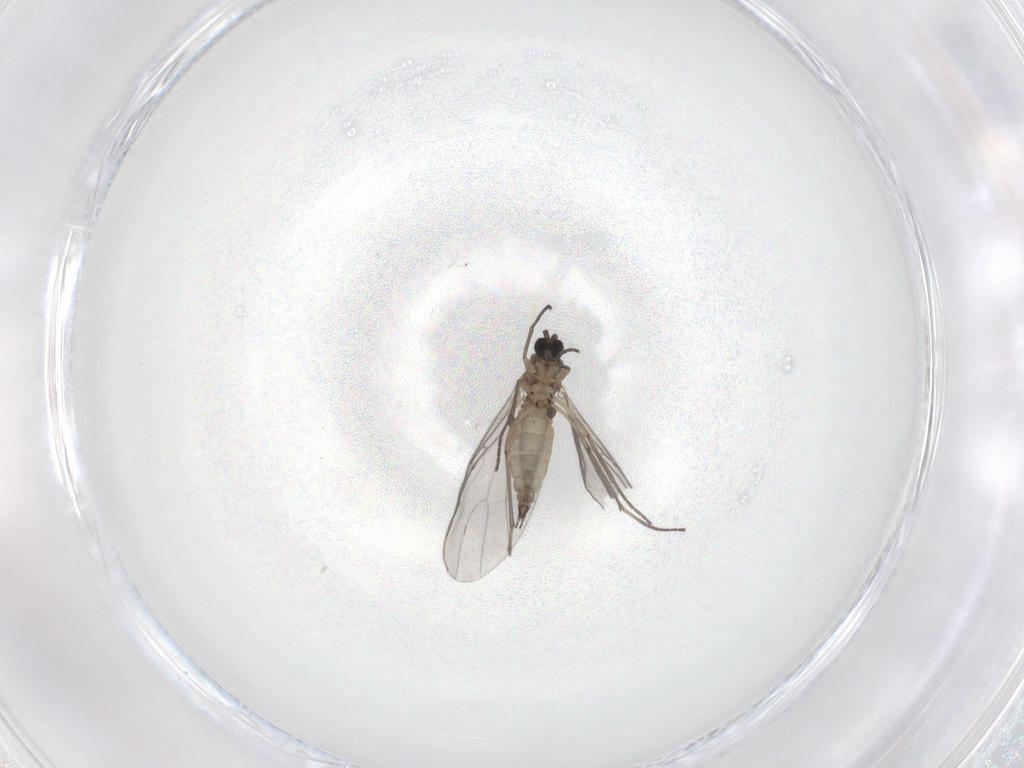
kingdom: Animalia
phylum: Arthropoda
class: Insecta
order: Diptera
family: Sciaridae
